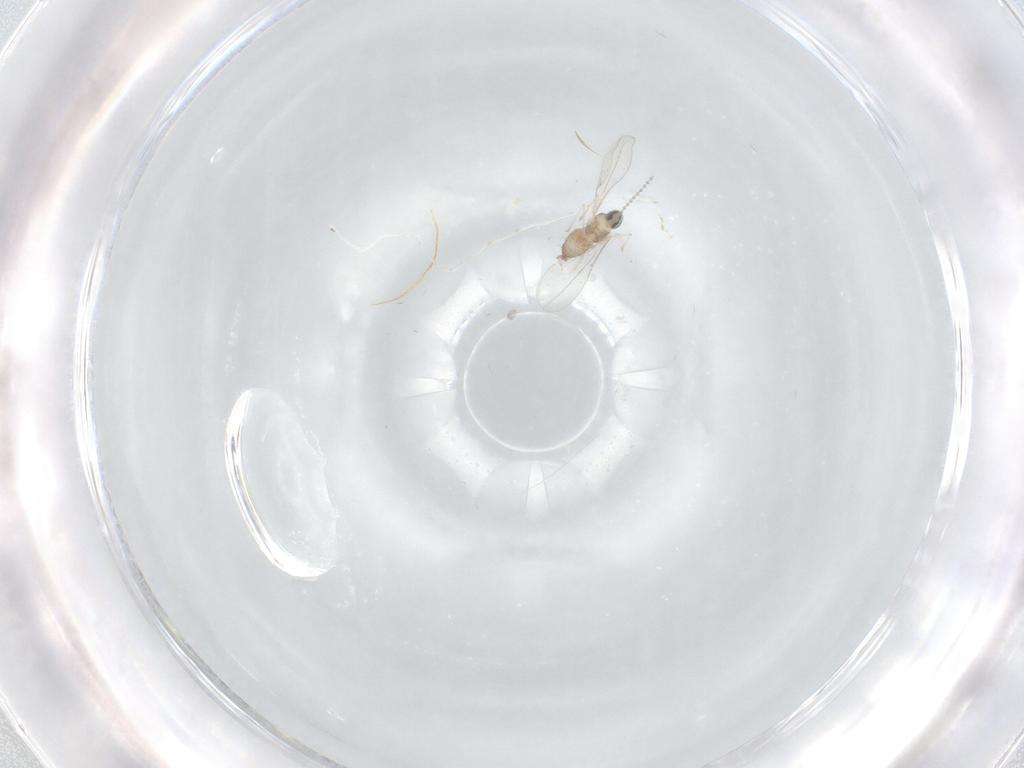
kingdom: Animalia
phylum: Arthropoda
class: Insecta
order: Diptera
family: Cecidomyiidae
